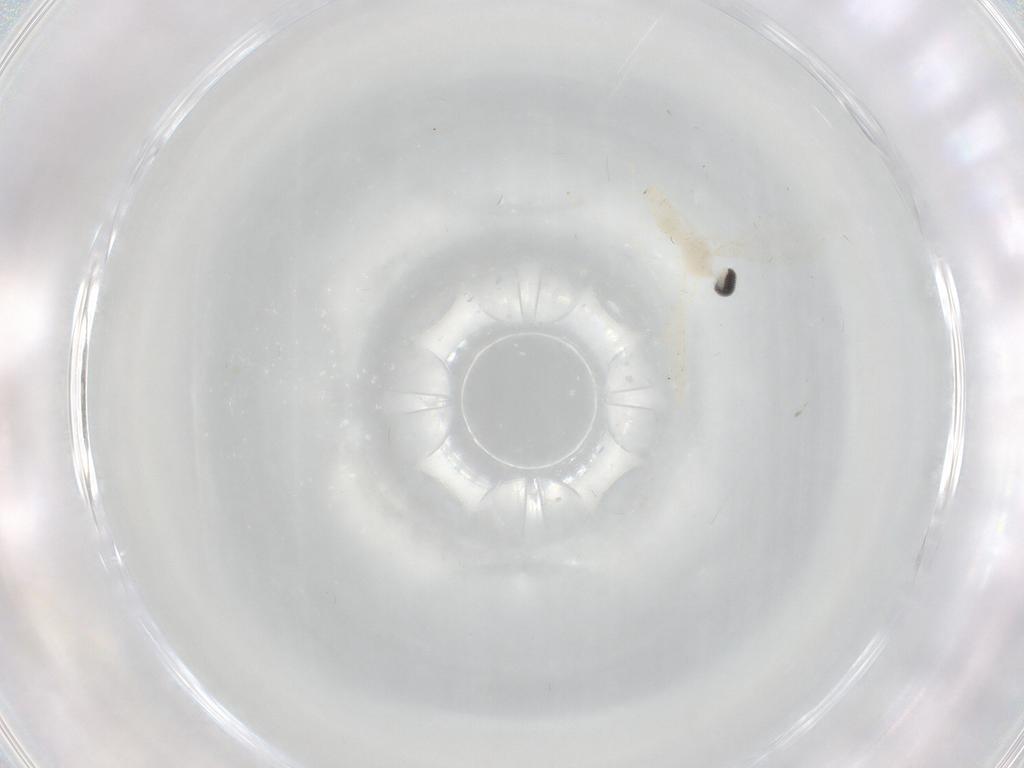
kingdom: Animalia
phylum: Arthropoda
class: Insecta
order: Diptera
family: Cecidomyiidae
